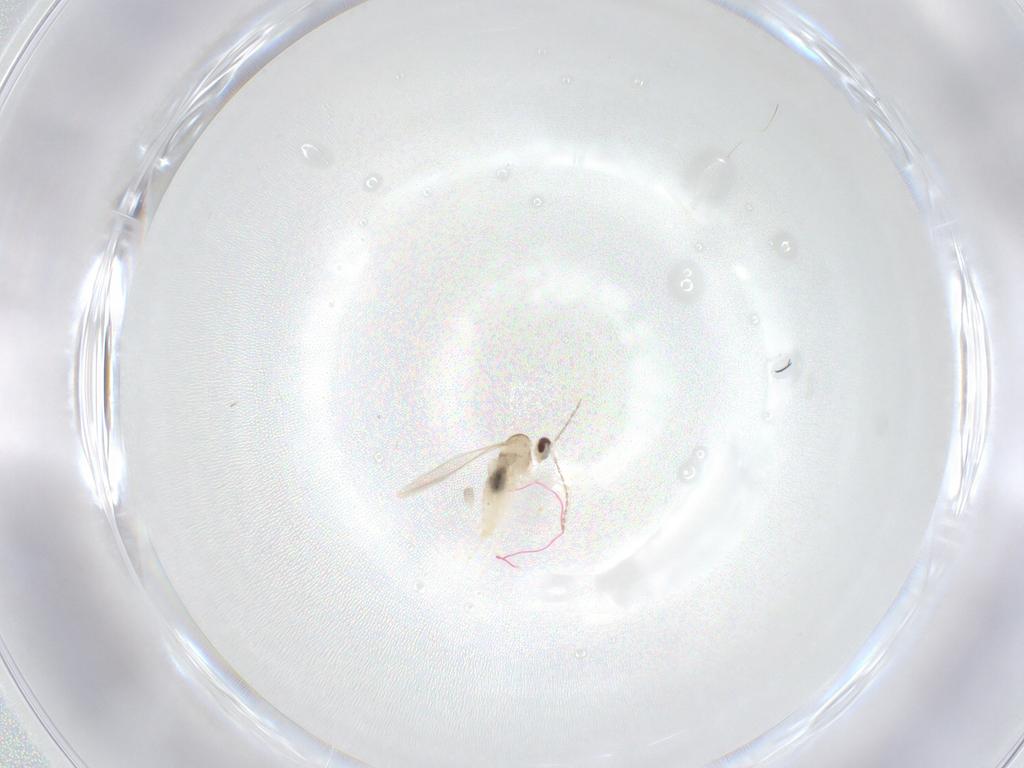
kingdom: Animalia
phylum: Arthropoda
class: Insecta
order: Diptera
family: Cecidomyiidae
